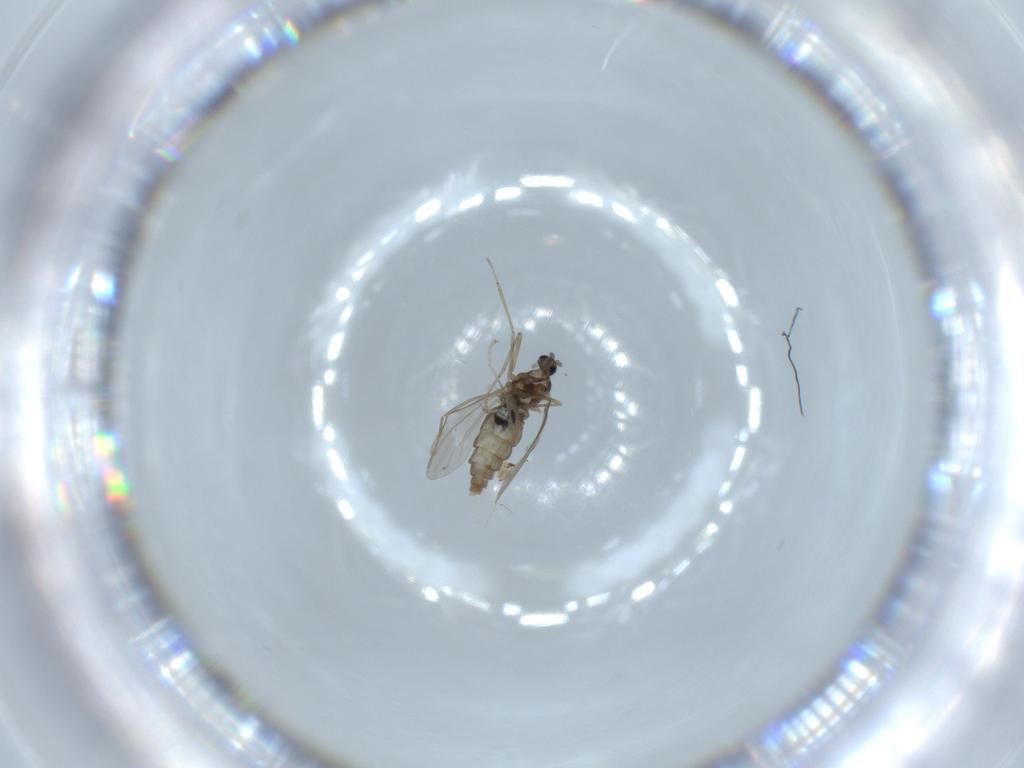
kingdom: Animalia
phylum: Arthropoda
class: Insecta
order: Diptera
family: Cecidomyiidae
